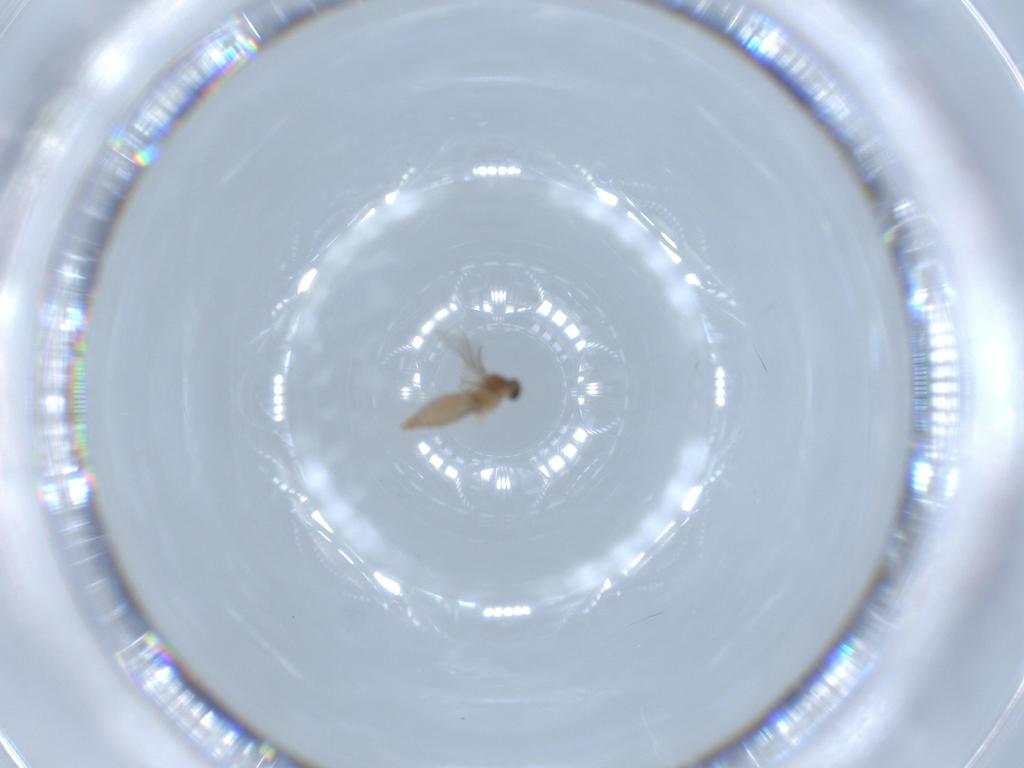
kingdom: Animalia
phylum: Arthropoda
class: Insecta
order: Diptera
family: Cecidomyiidae
